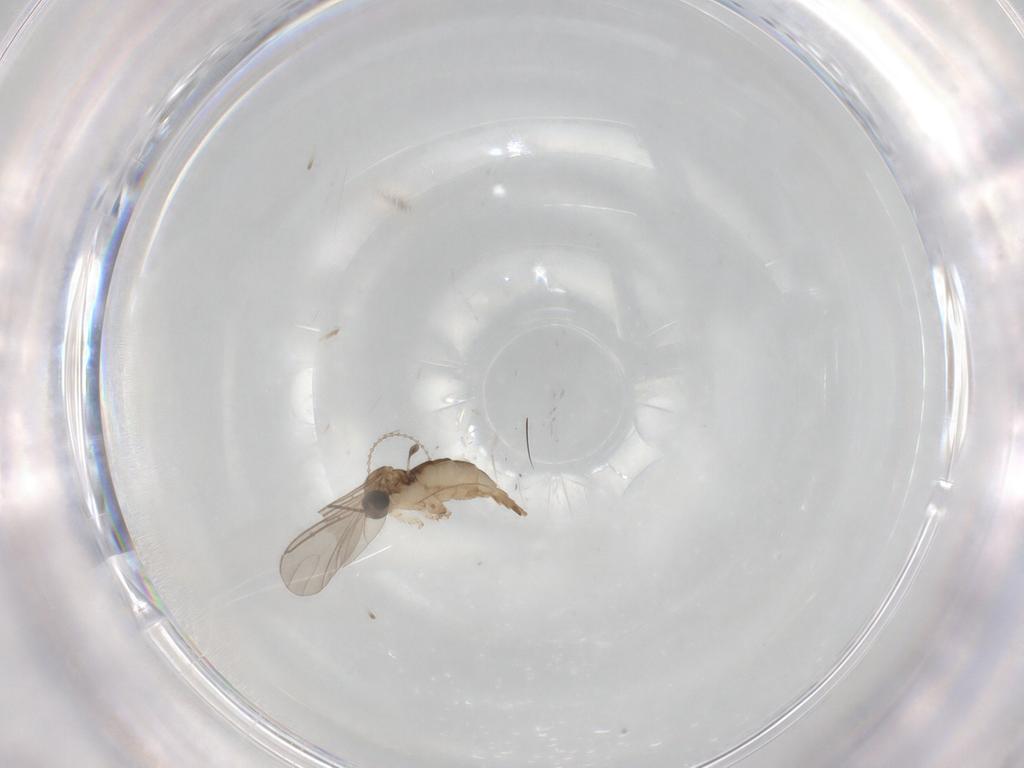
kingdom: Animalia
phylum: Arthropoda
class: Insecta
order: Diptera
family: Cecidomyiidae
